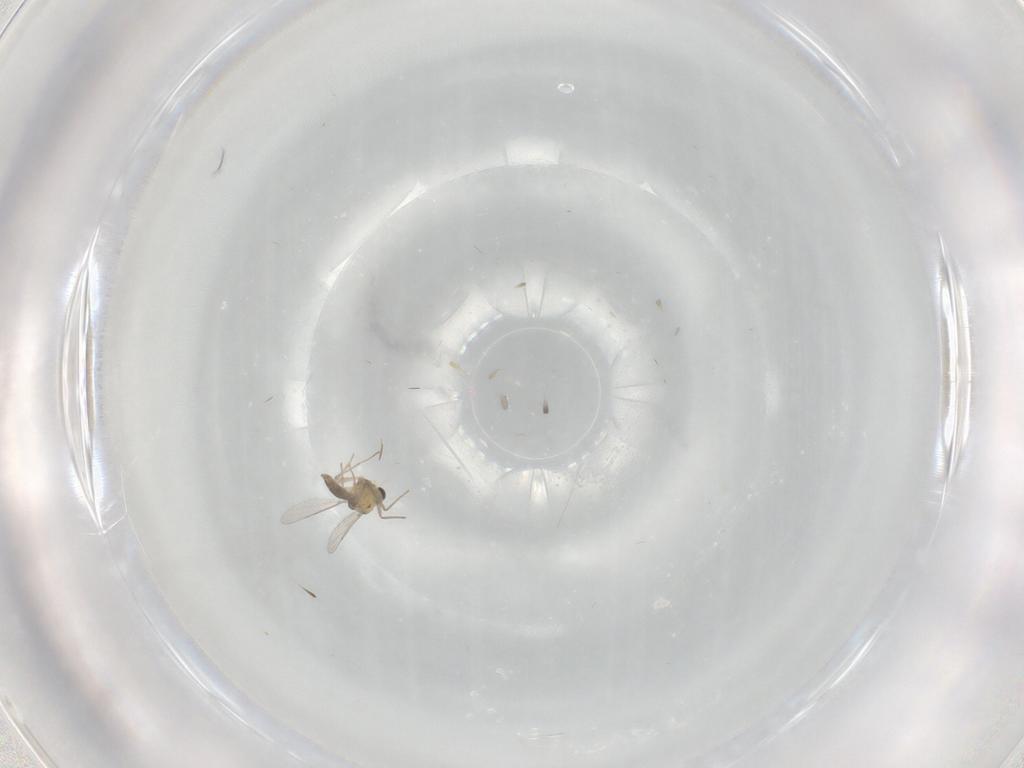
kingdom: Animalia
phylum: Arthropoda
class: Insecta
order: Diptera
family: Chironomidae
